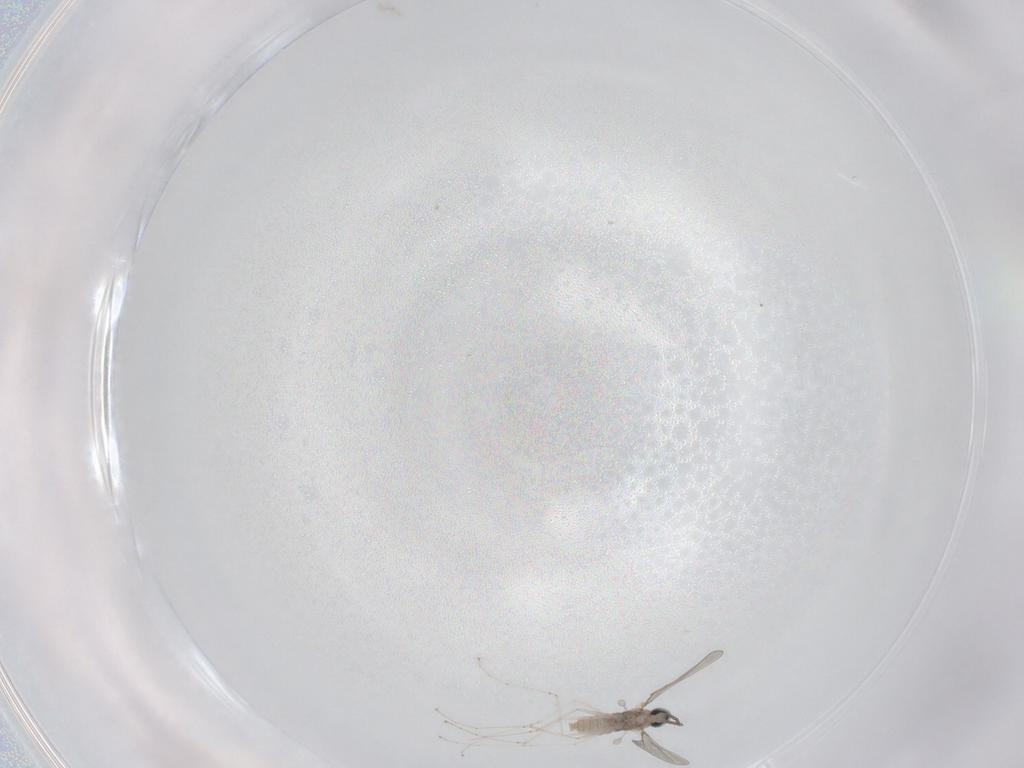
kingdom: Animalia
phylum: Arthropoda
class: Insecta
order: Diptera
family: Cecidomyiidae
